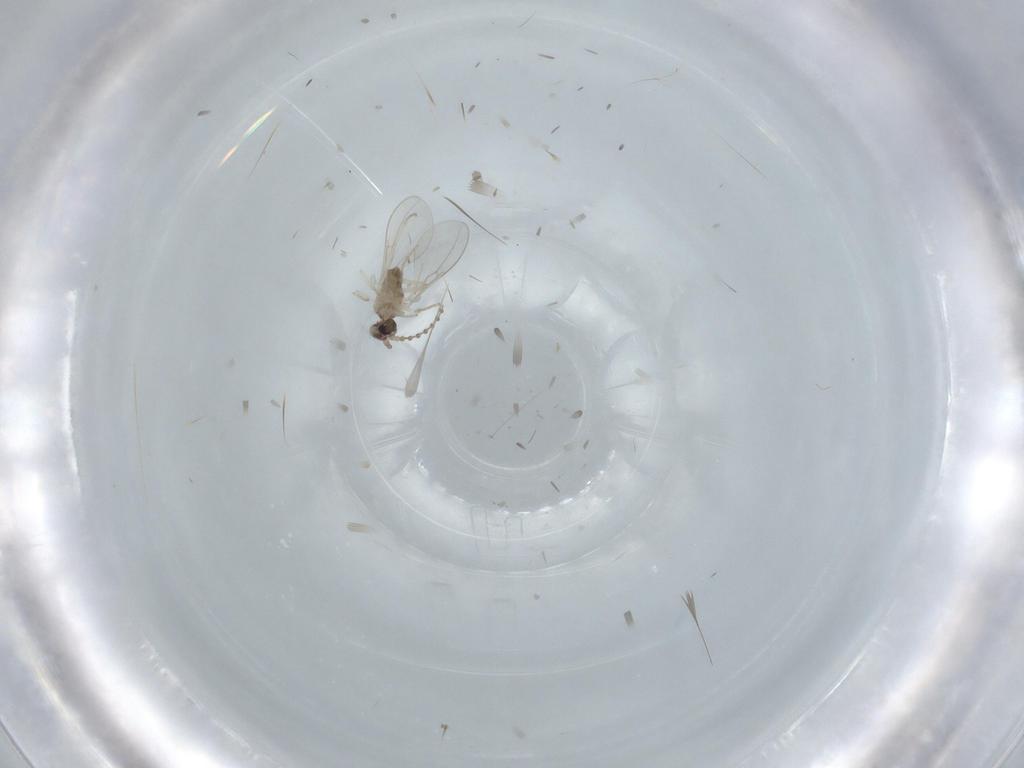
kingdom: Animalia
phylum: Arthropoda
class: Insecta
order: Diptera
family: Cecidomyiidae
